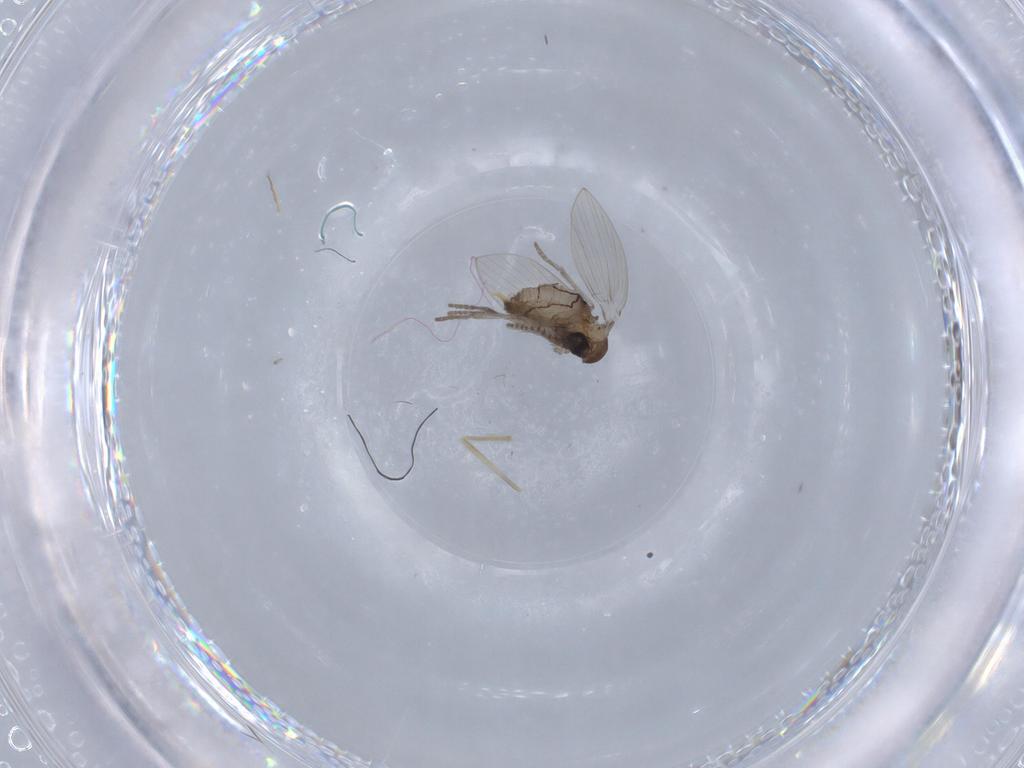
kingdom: Animalia
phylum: Arthropoda
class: Insecta
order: Diptera
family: Psychodidae
